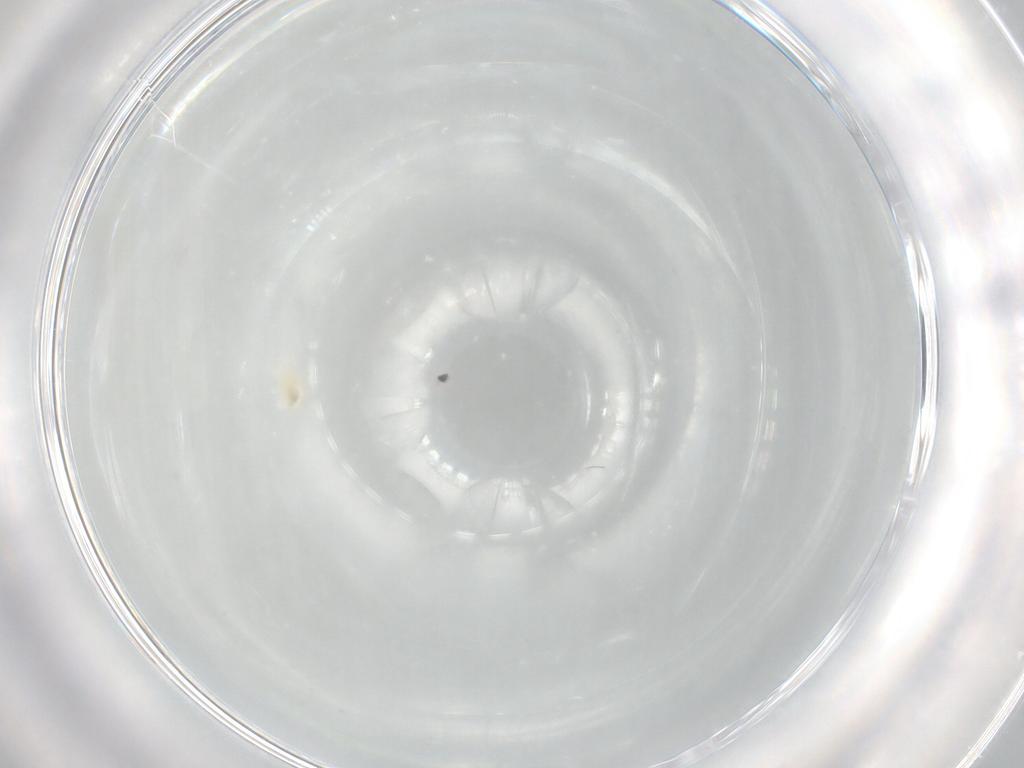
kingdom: Animalia
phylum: Arthropoda
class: Arachnida
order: Trombidiformes
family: Eupodidae
